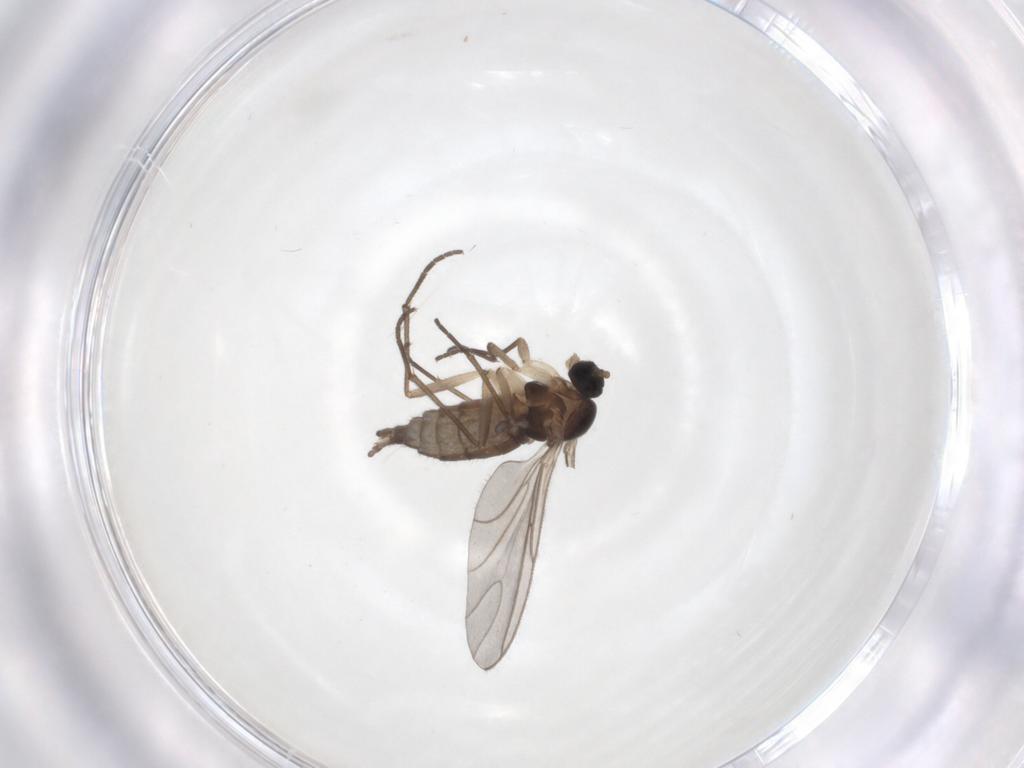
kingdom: Animalia
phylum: Arthropoda
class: Insecta
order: Diptera
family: Sciaridae
